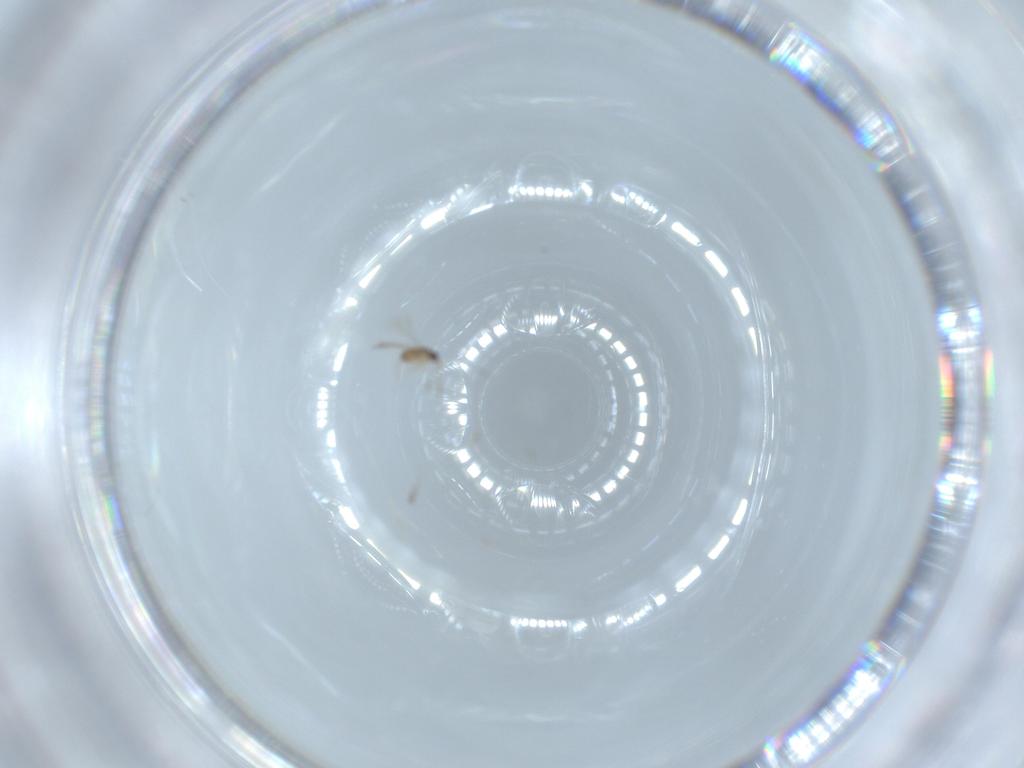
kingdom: Animalia
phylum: Arthropoda
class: Insecta
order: Hymenoptera
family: Mymaridae
